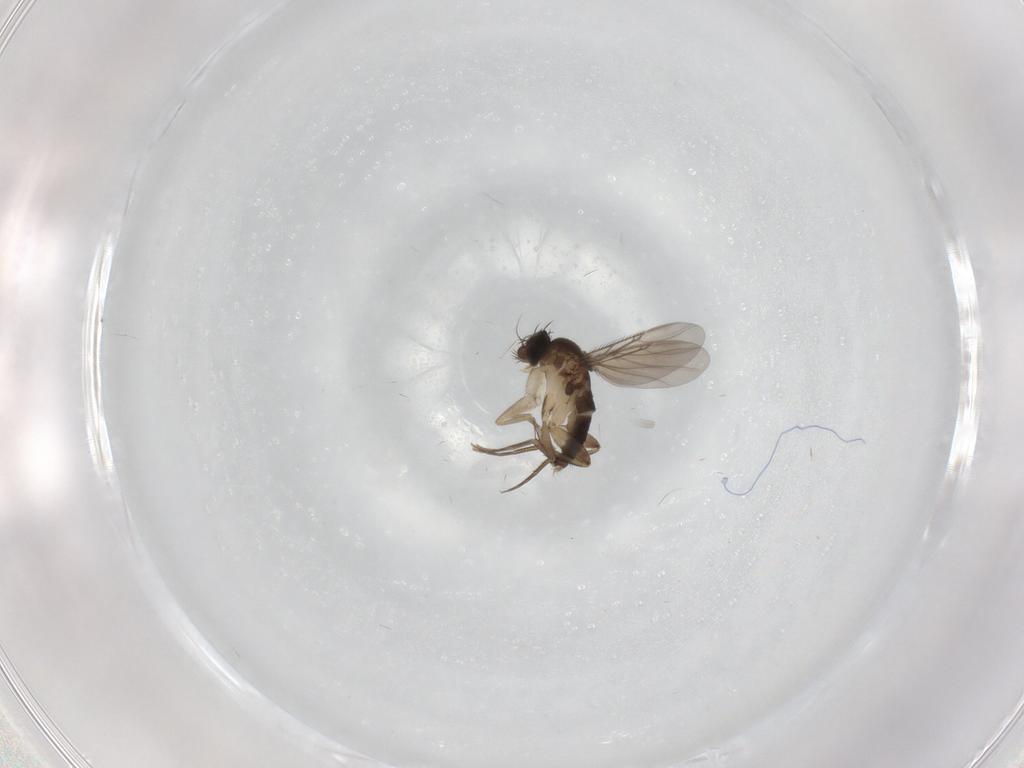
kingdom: Animalia
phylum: Arthropoda
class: Insecta
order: Diptera
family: Phoridae
